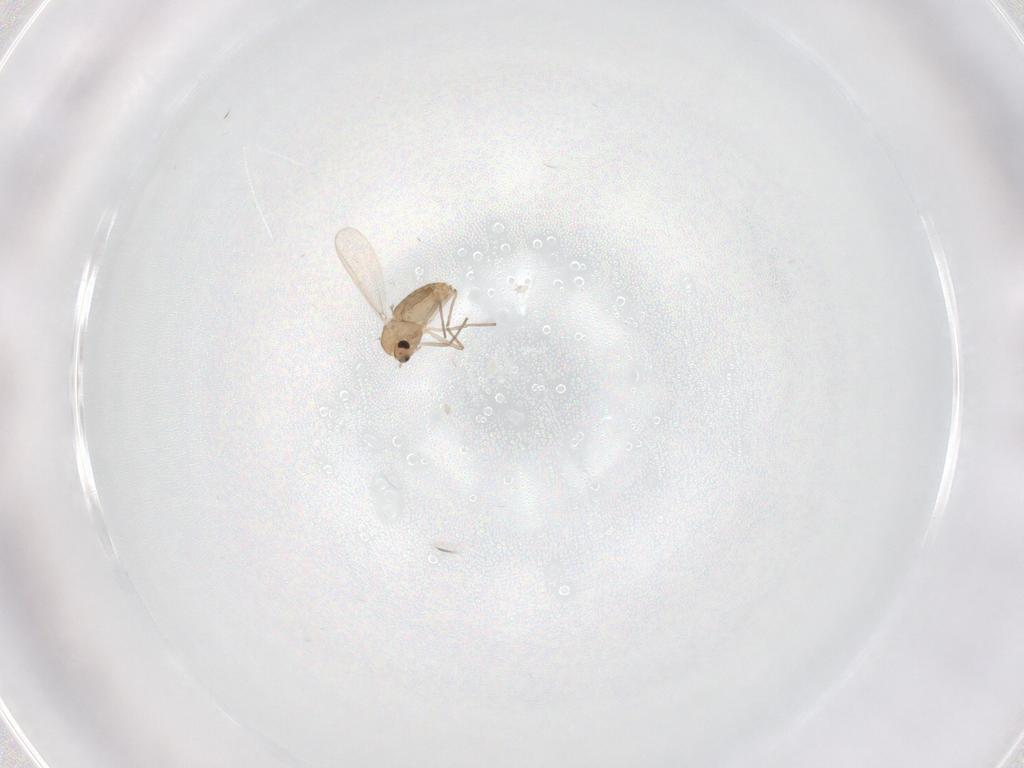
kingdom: Animalia
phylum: Arthropoda
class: Insecta
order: Diptera
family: Chironomidae
